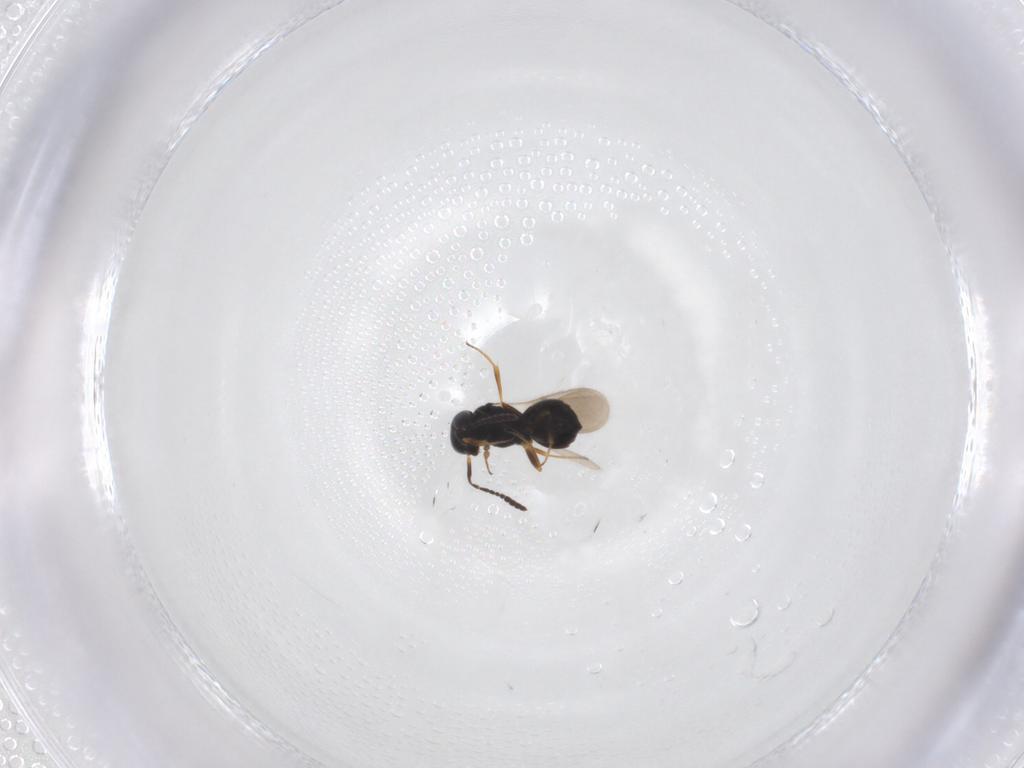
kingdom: Animalia
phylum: Arthropoda
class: Insecta
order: Hymenoptera
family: Scelionidae
